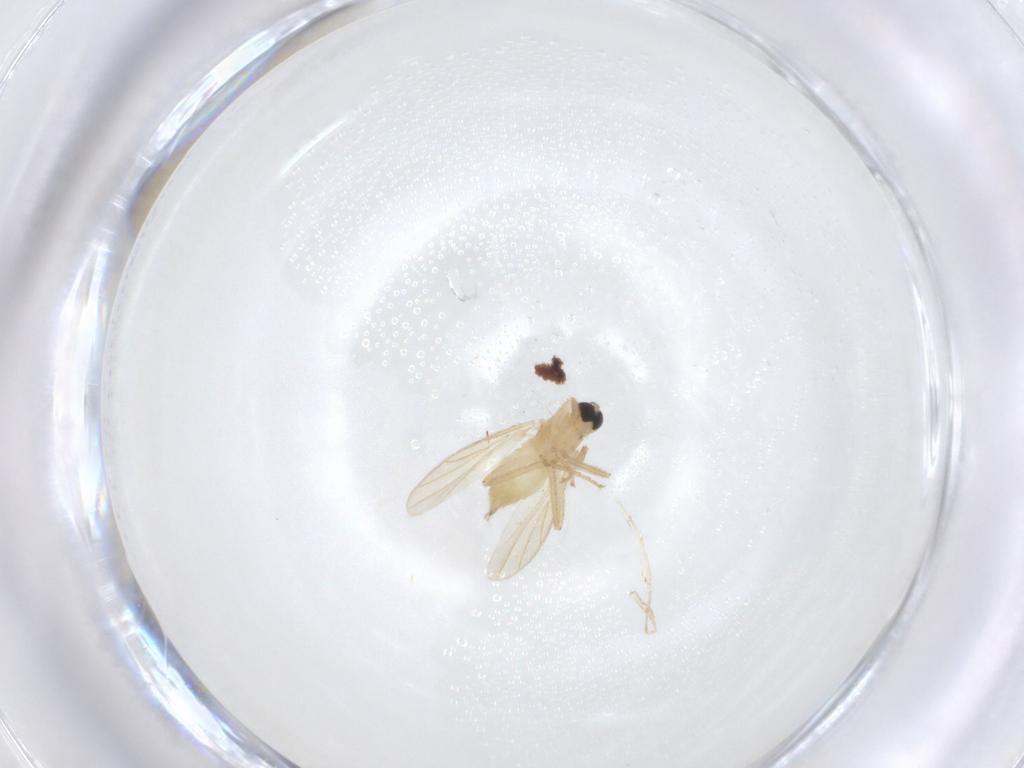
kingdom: Animalia
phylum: Arthropoda
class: Insecta
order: Diptera
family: Hybotidae
